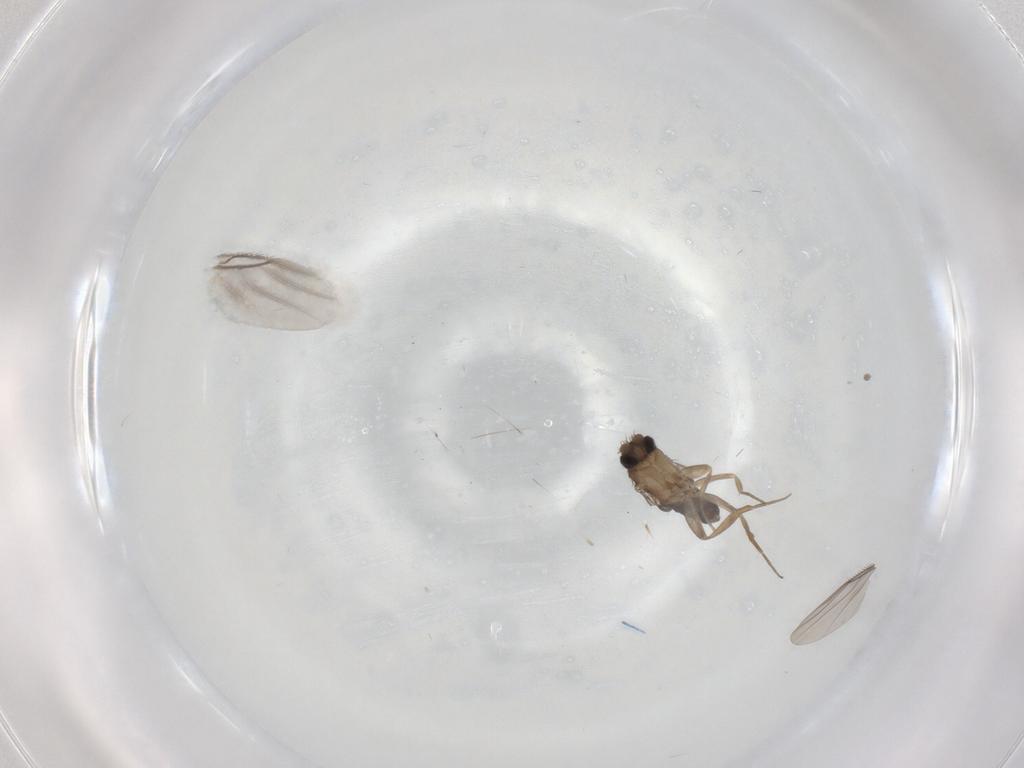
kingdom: Animalia
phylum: Arthropoda
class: Insecta
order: Diptera
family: Phoridae
